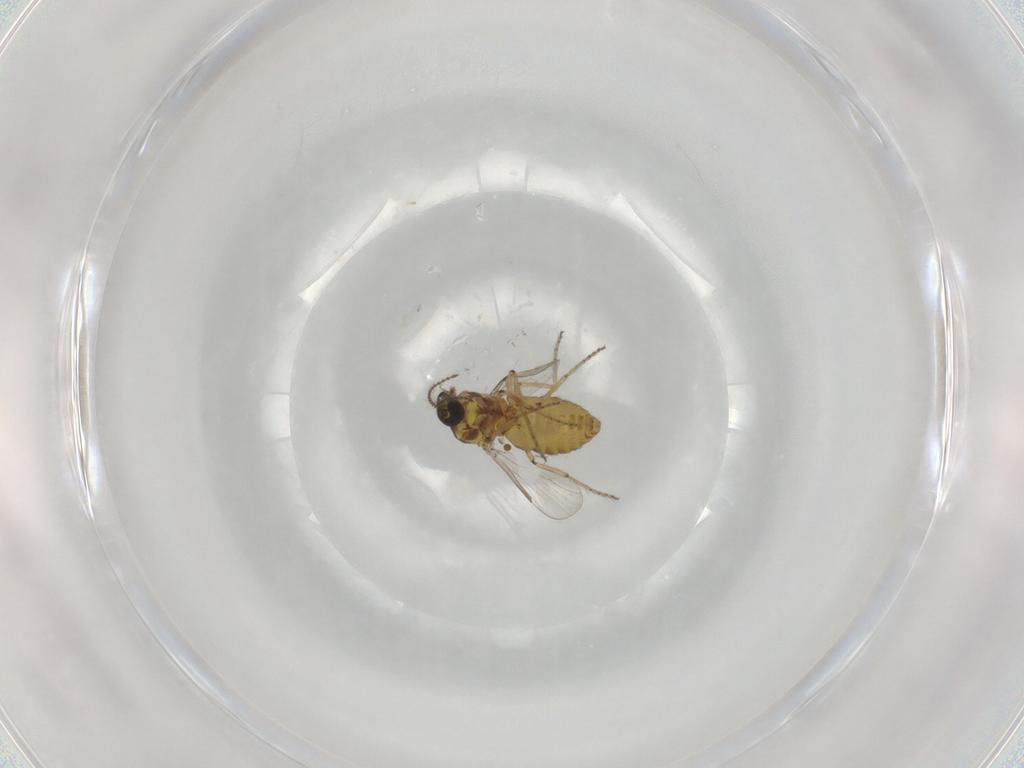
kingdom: Animalia
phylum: Arthropoda
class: Insecta
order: Diptera
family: Ceratopogonidae
